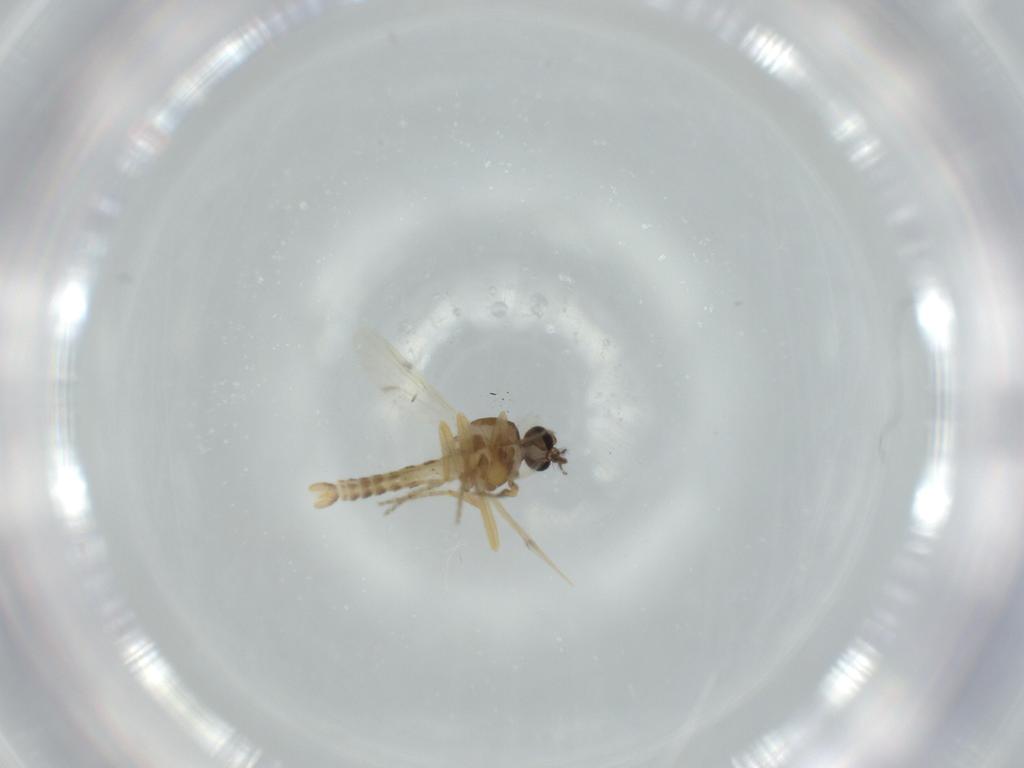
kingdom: Animalia
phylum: Arthropoda
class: Insecta
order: Diptera
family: Ceratopogonidae
